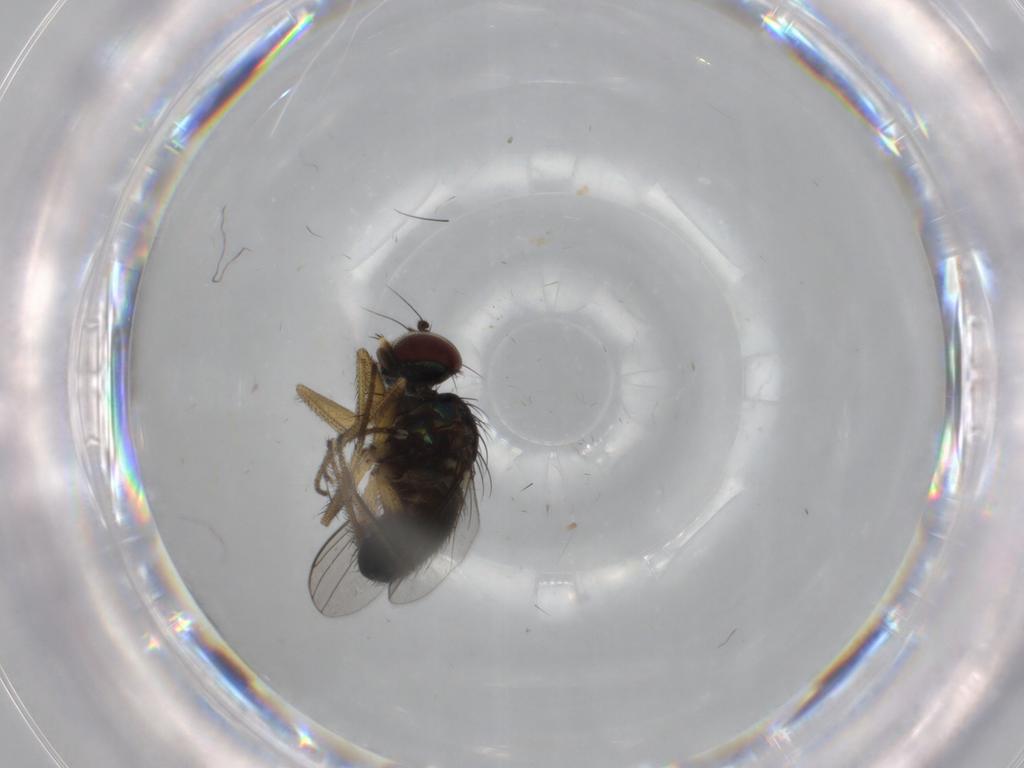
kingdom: Animalia
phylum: Arthropoda
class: Insecta
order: Diptera
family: Dolichopodidae
